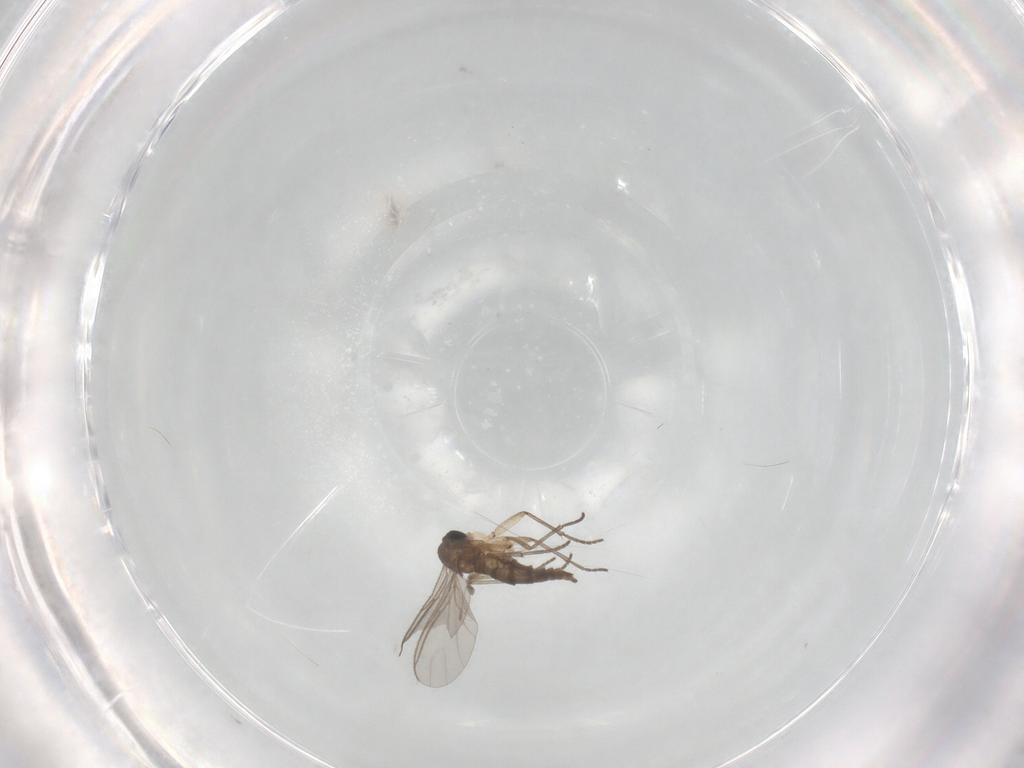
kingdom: Animalia
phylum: Arthropoda
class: Insecta
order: Diptera
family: Sciaridae
